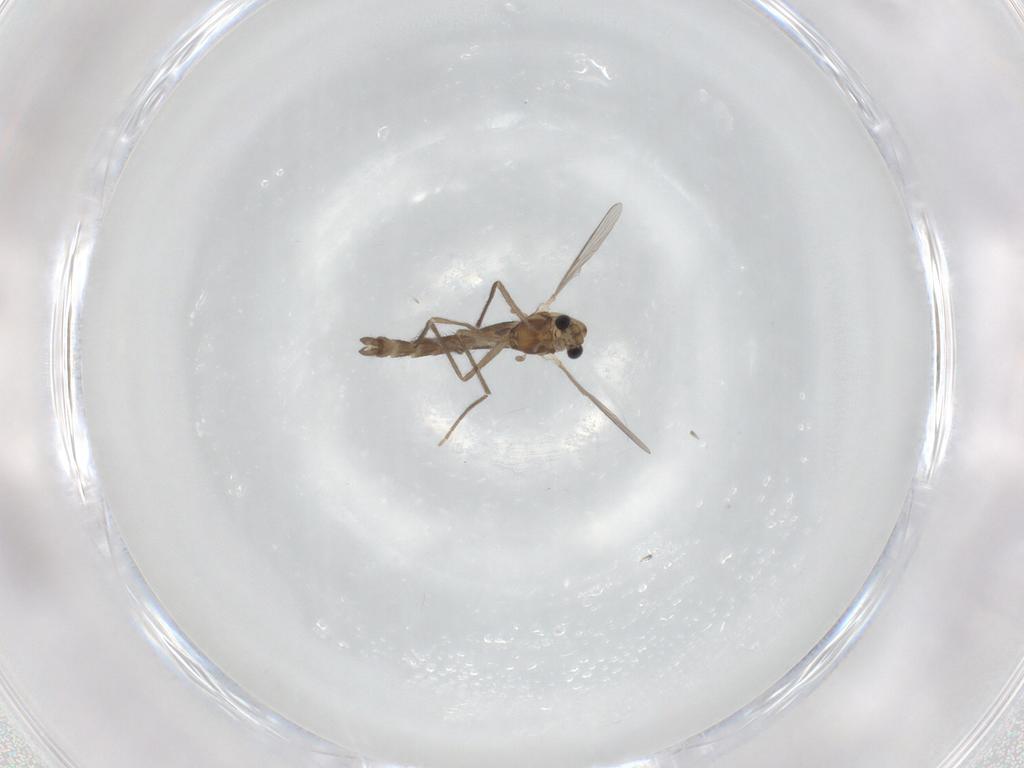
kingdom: Animalia
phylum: Arthropoda
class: Insecta
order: Diptera
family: Chironomidae
